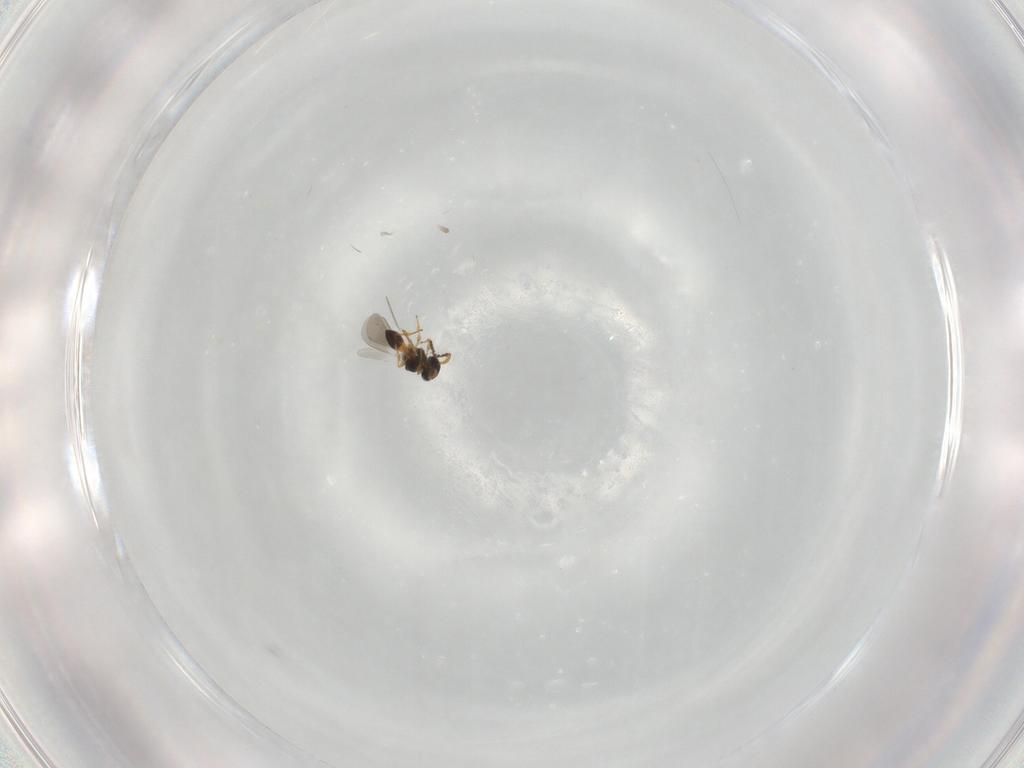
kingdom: Animalia
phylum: Arthropoda
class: Insecta
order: Hymenoptera
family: Platygastridae
